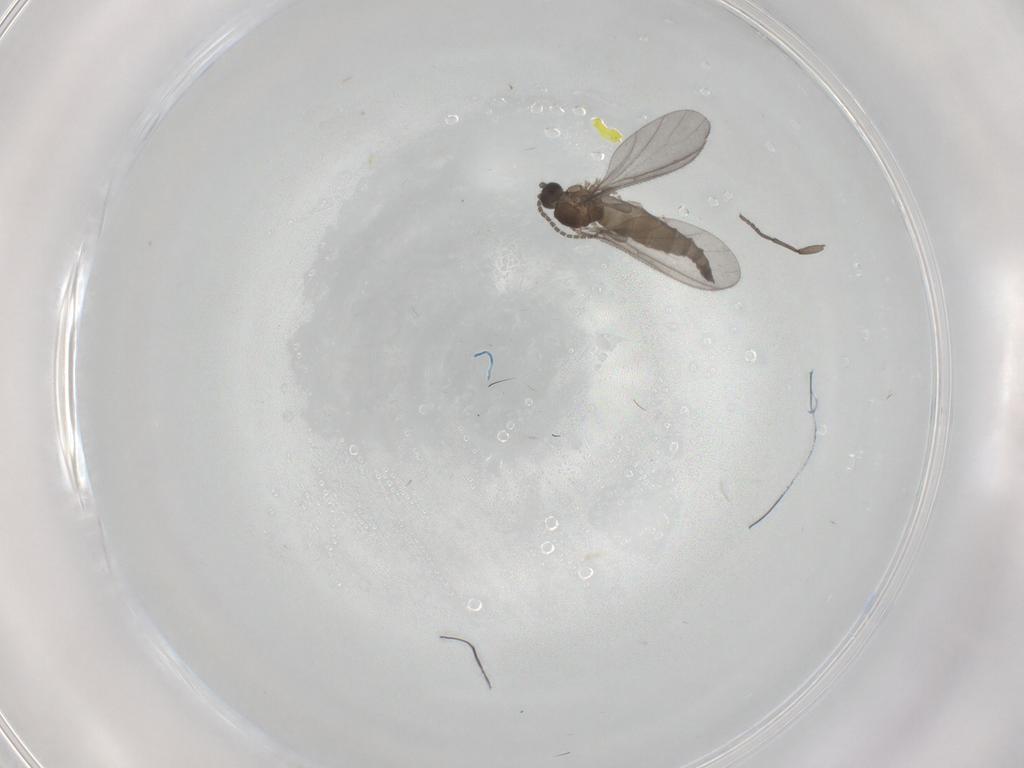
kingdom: Animalia
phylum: Arthropoda
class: Insecta
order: Diptera
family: Sciaridae
